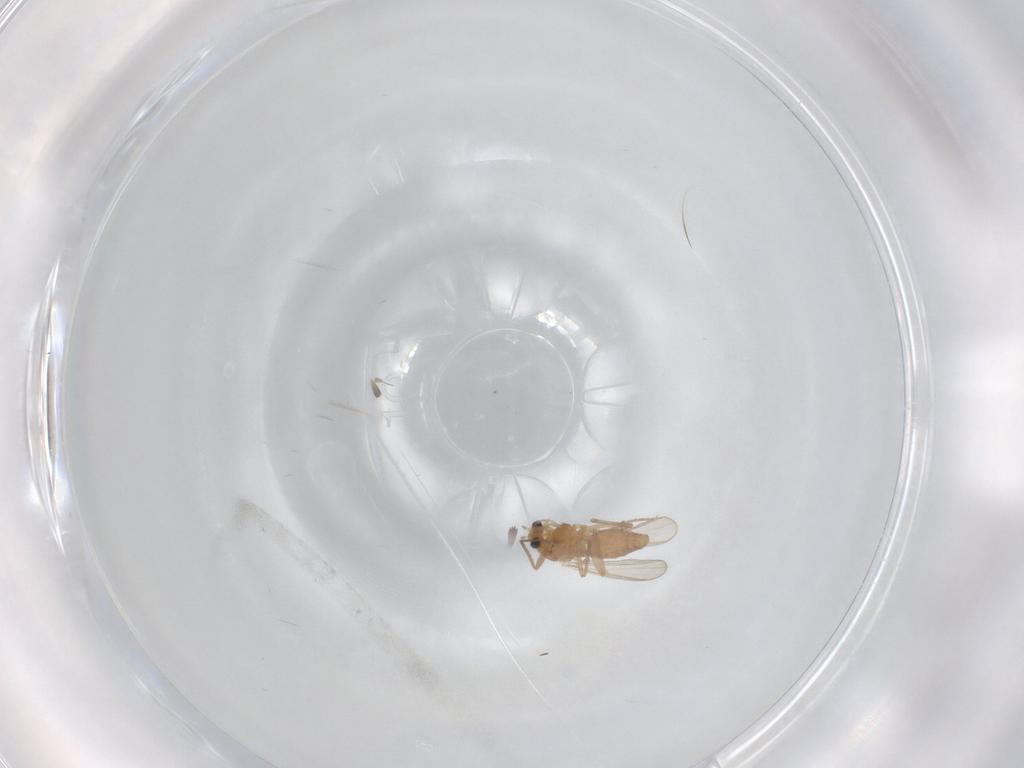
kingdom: Animalia
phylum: Arthropoda
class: Insecta
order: Diptera
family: Chironomidae
